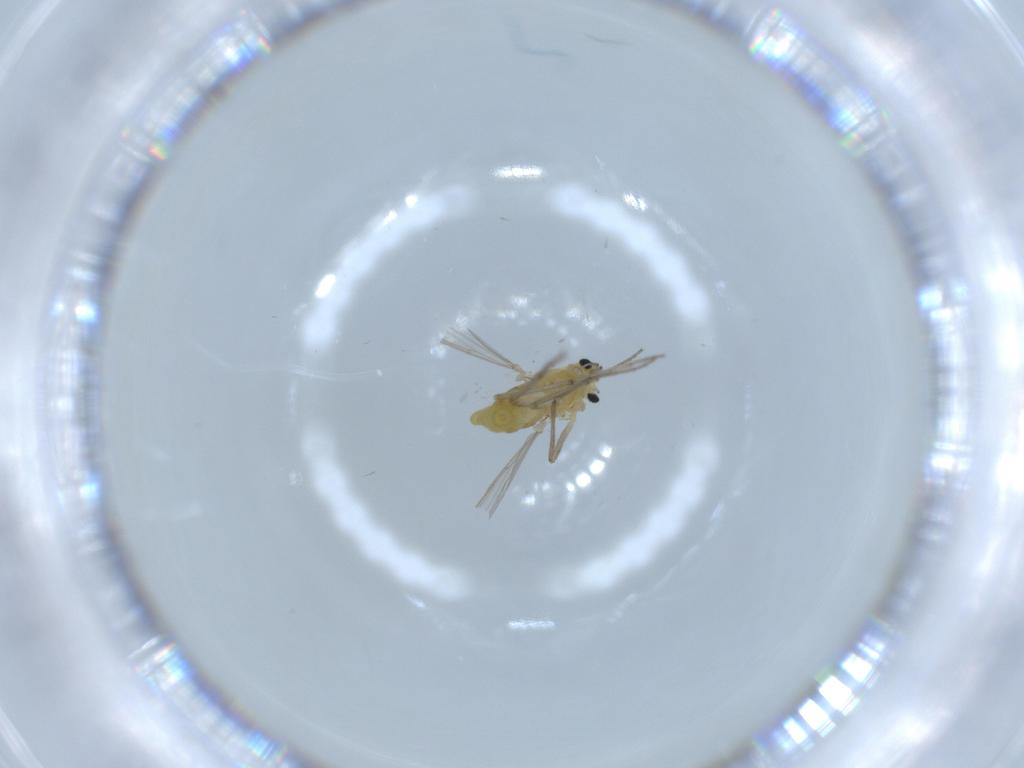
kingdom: Animalia
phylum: Arthropoda
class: Insecta
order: Diptera
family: Chironomidae
